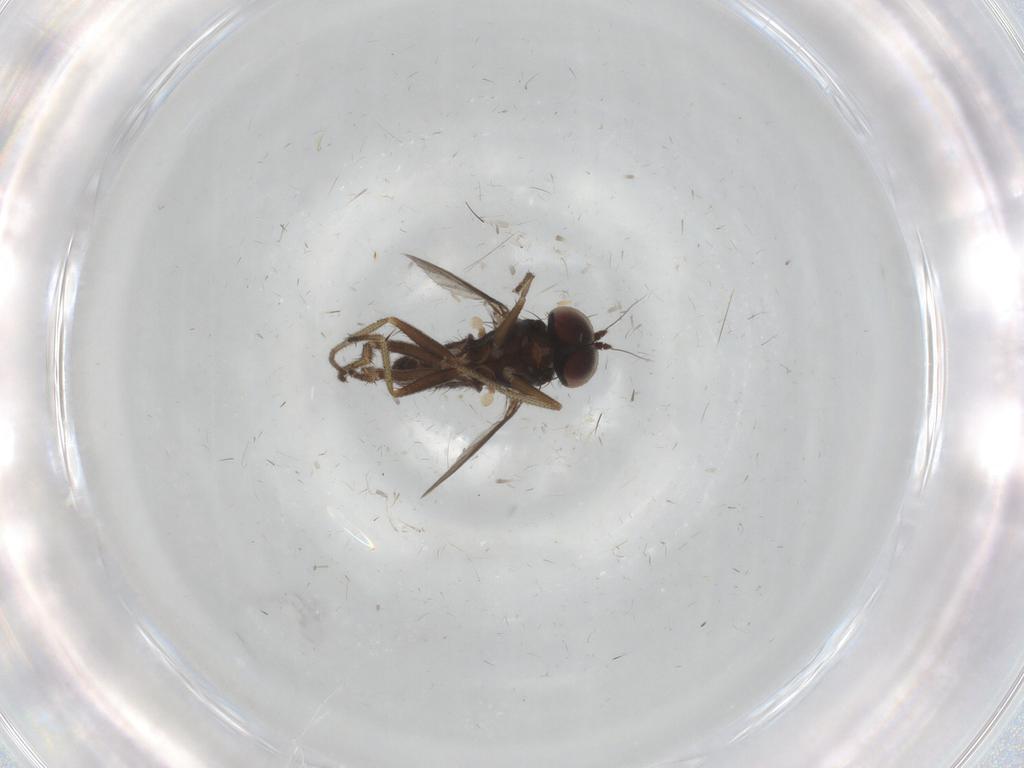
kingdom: Animalia
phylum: Arthropoda
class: Insecta
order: Diptera
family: Dolichopodidae
